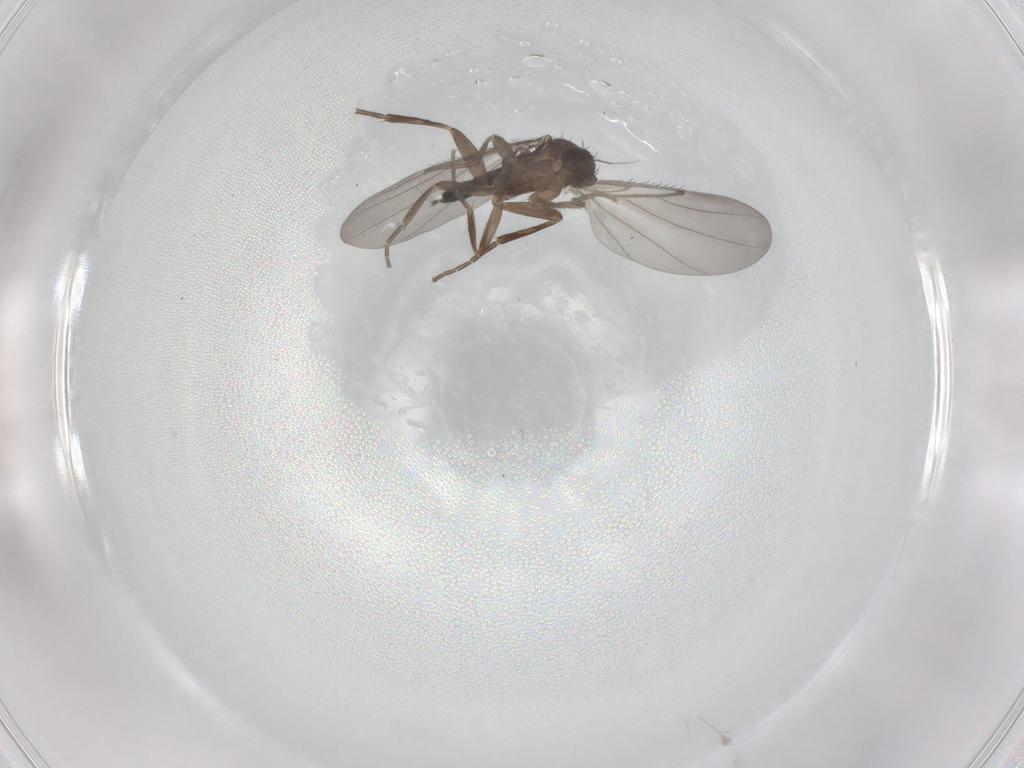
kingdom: Animalia
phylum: Arthropoda
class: Insecta
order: Diptera
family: Phoridae
